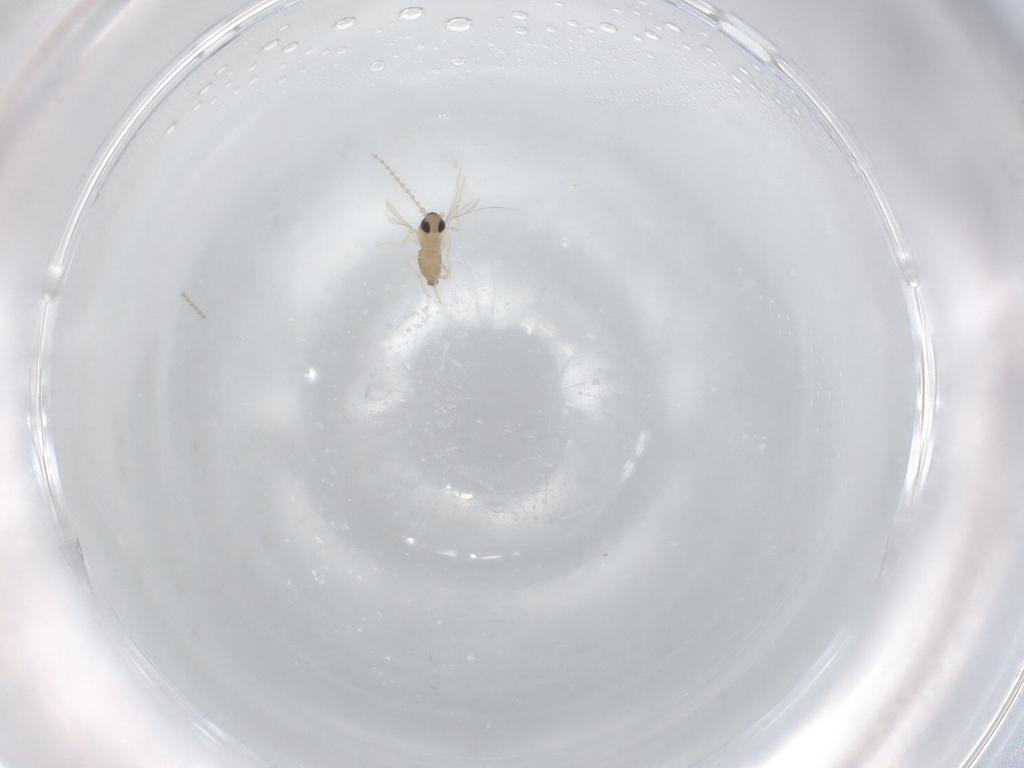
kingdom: Animalia
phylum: Arthropoda
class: Insecta
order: Diptera
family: Cecidomyiidae
